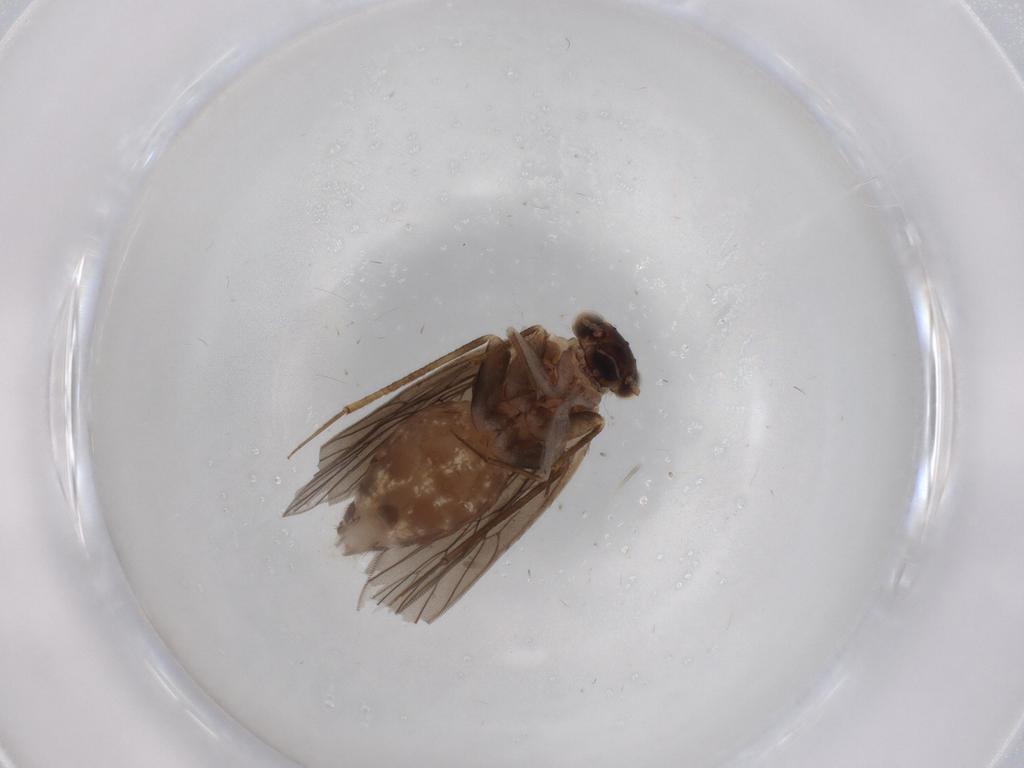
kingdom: Animalia
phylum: Arthropoda
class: Insecta
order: Psocodea
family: Lepidopsocidae
